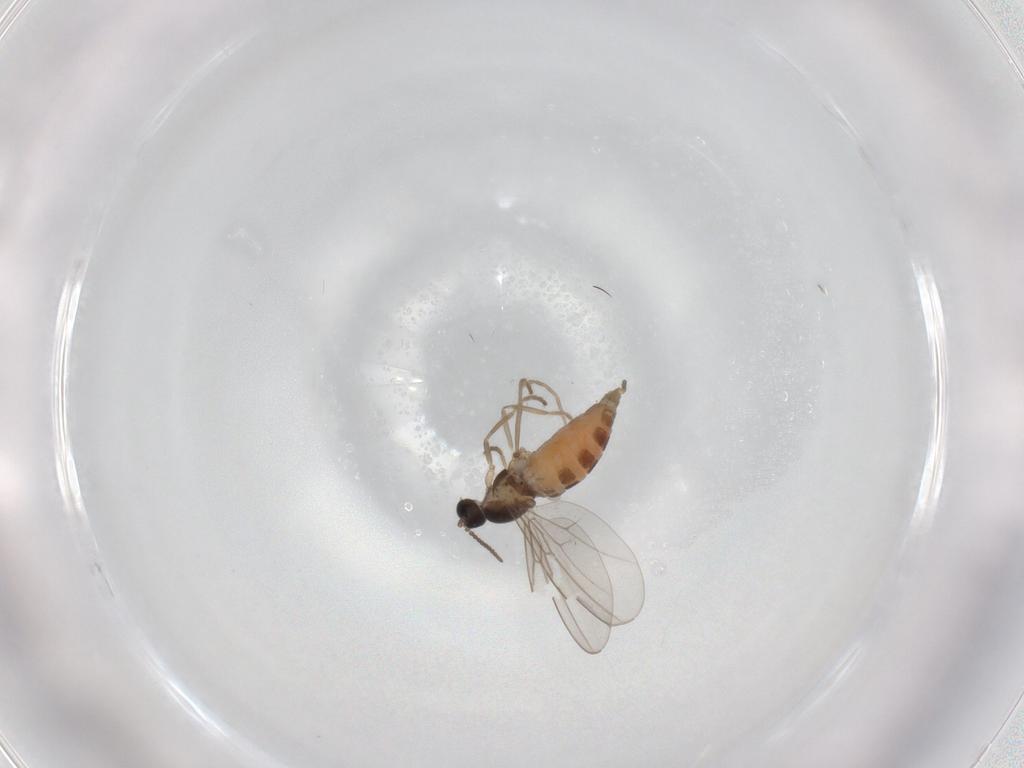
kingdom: Animalia
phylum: Arthropoda
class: Insecta
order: Diptera
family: Cecidomyiidae
